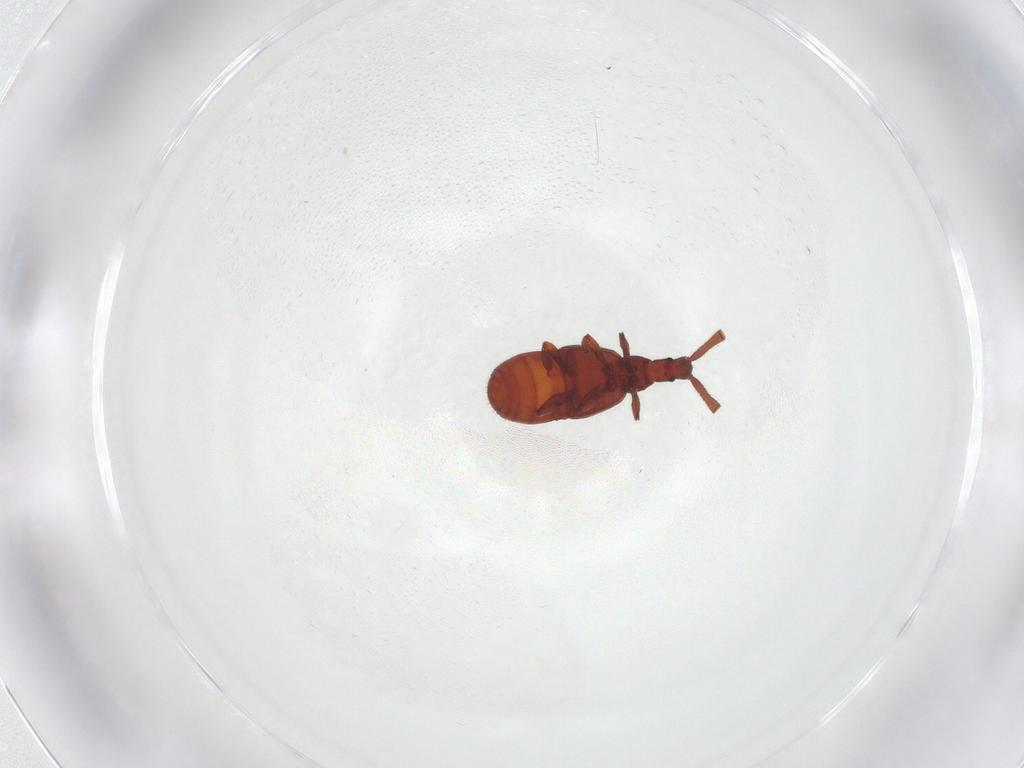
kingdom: Animalia
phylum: Arthropoda
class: Insecta
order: Coleoptera
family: Staphylinidae
